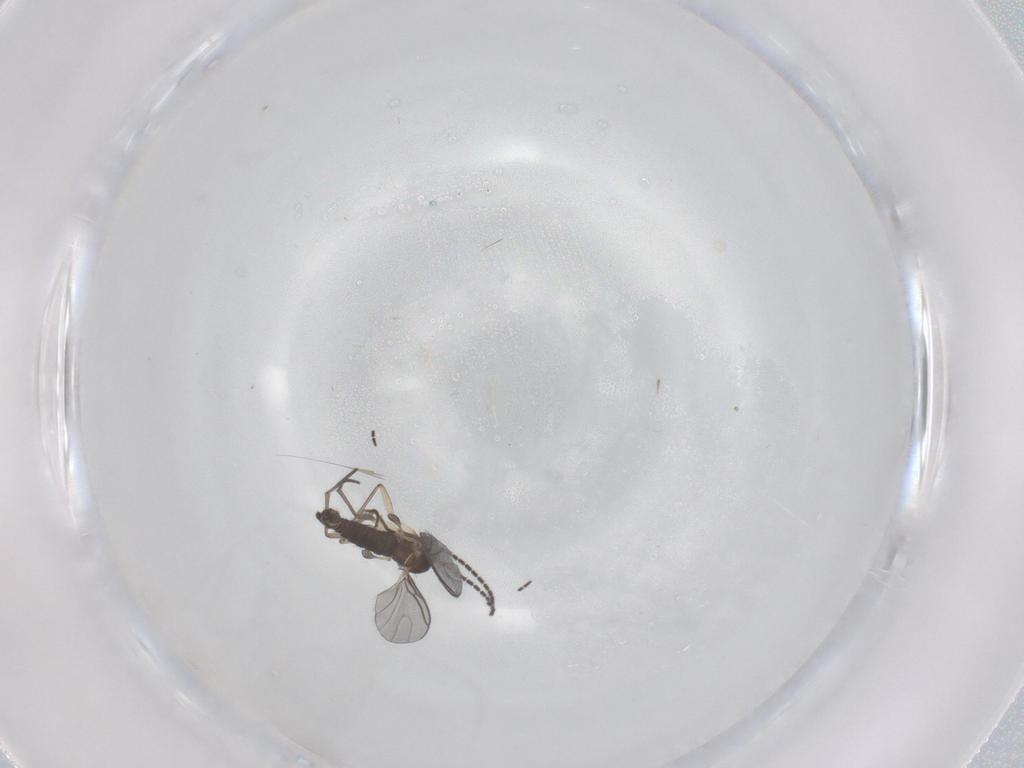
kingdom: Animalia
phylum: Arthropoda
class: Insecta
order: Diptera
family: Sciaridae
